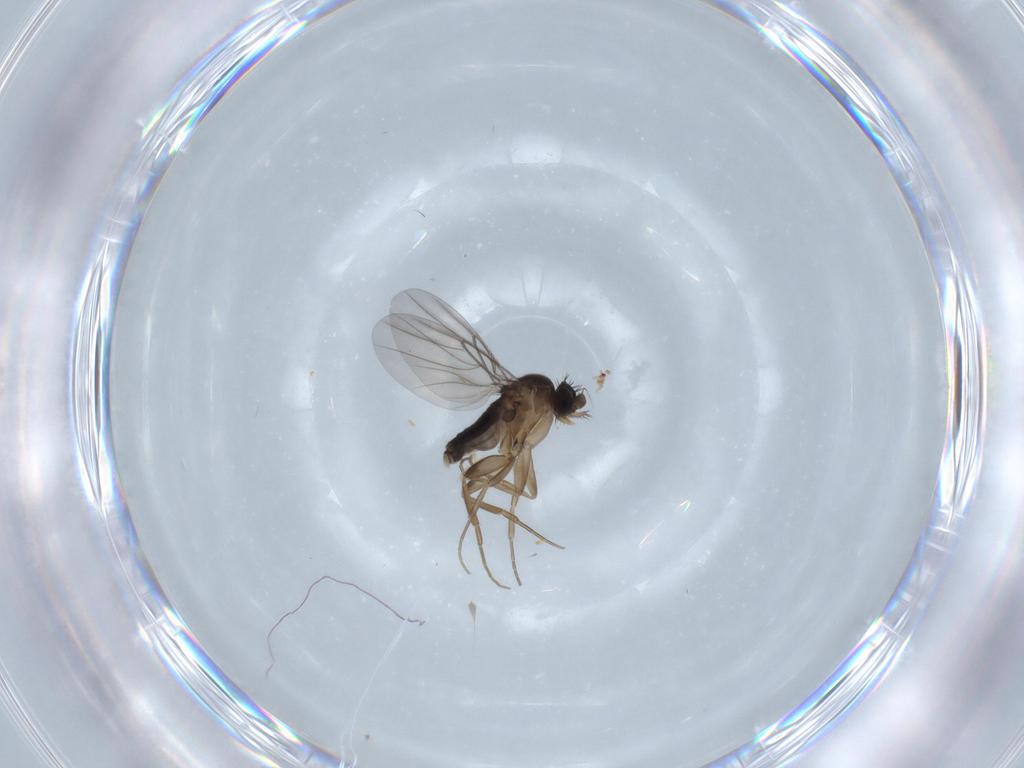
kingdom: Animalia
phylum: Arthropoda
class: Insecta
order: Diptera
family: Phoridae
